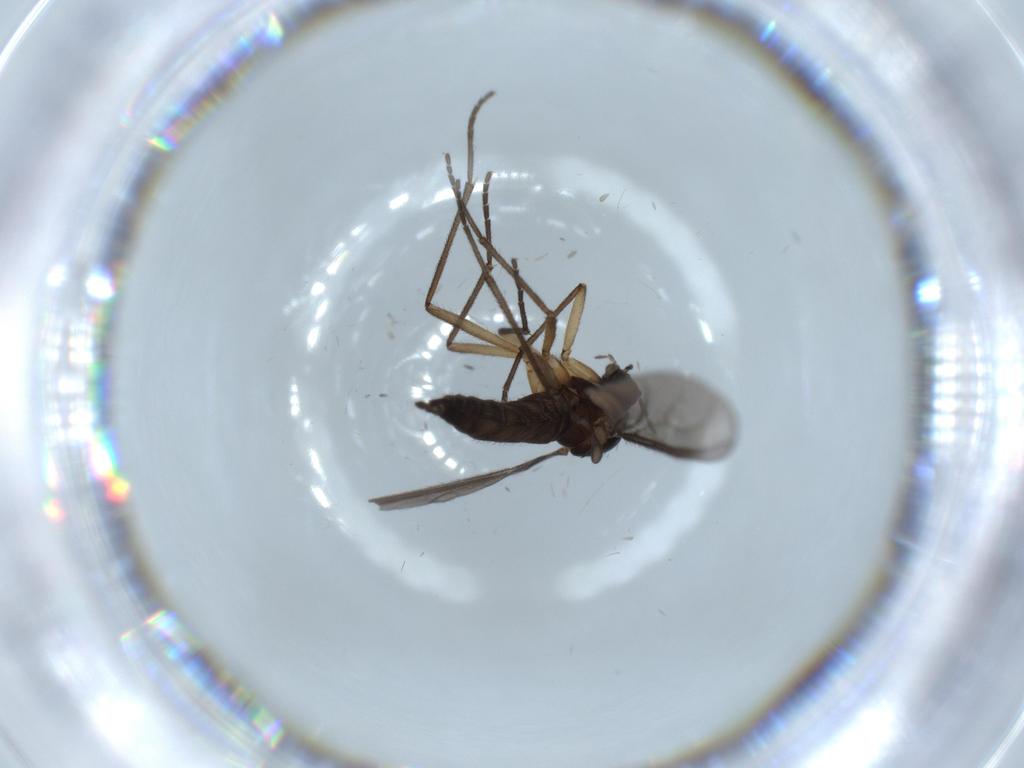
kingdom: Animalia
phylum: Arthropoda
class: Insecta
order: Diptera
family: Sciaridae
